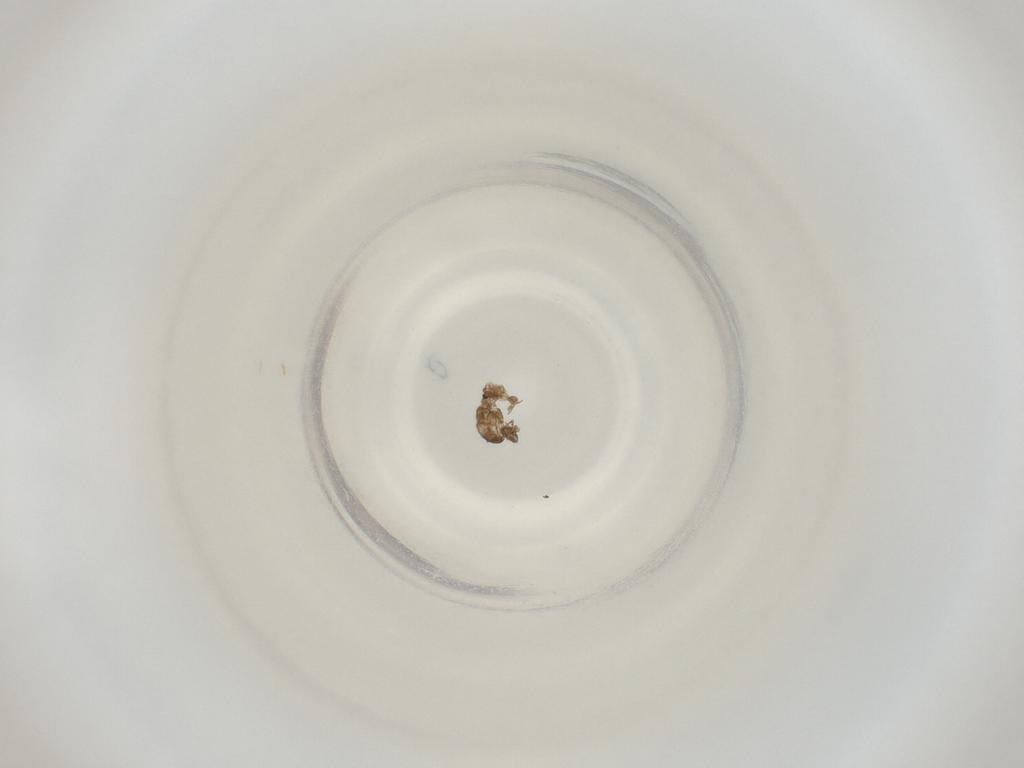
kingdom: Animalia
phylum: Arthropoda
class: Insecta
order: Diptera
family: Cecidomyiidae
